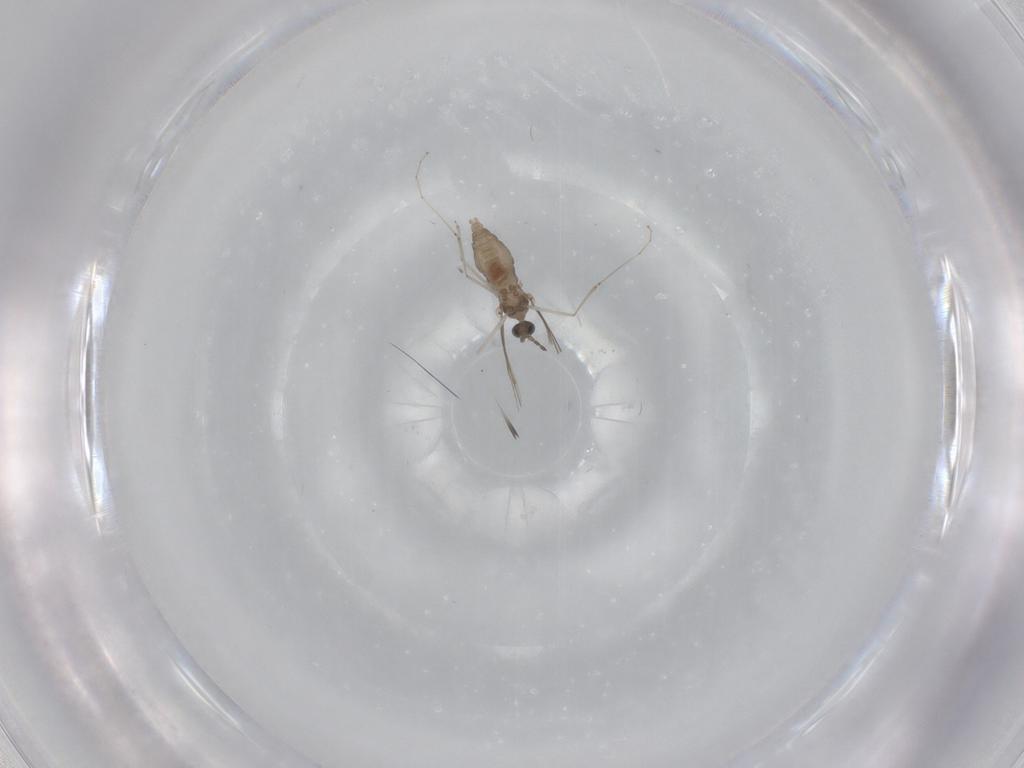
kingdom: Animalia
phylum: Arthropoda
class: Insecta
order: Diptera
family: Cecidomyiidae
